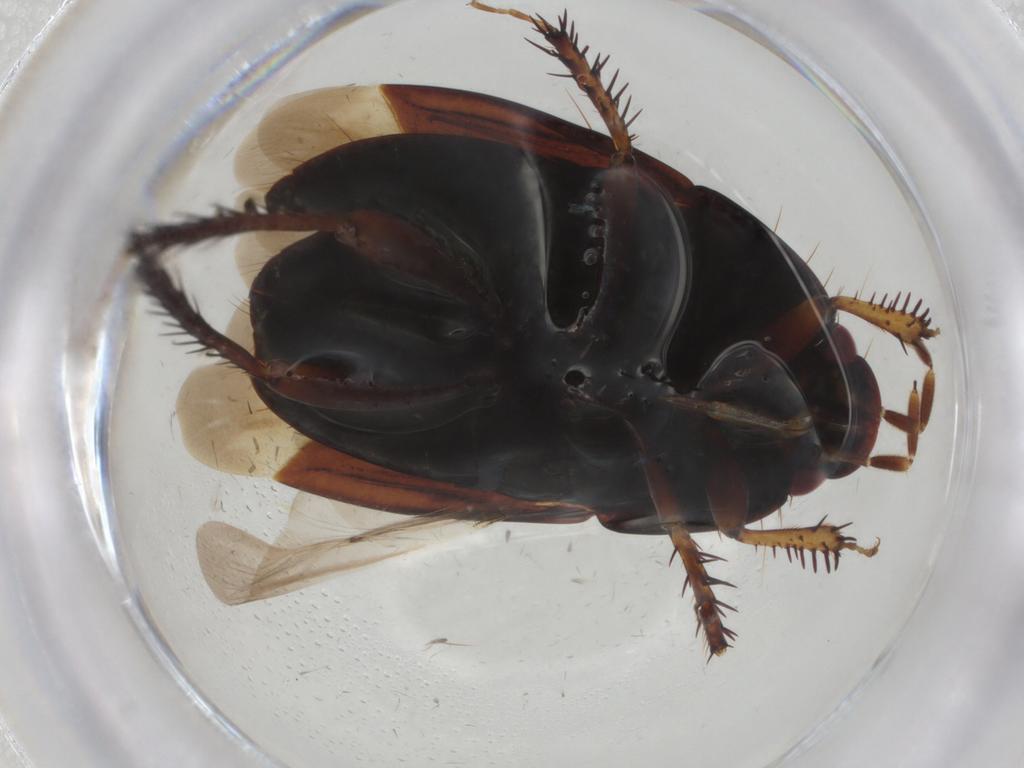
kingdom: Animalia
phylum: Arthropoda
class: Insecta
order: Hemiptera
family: Cydnidae
